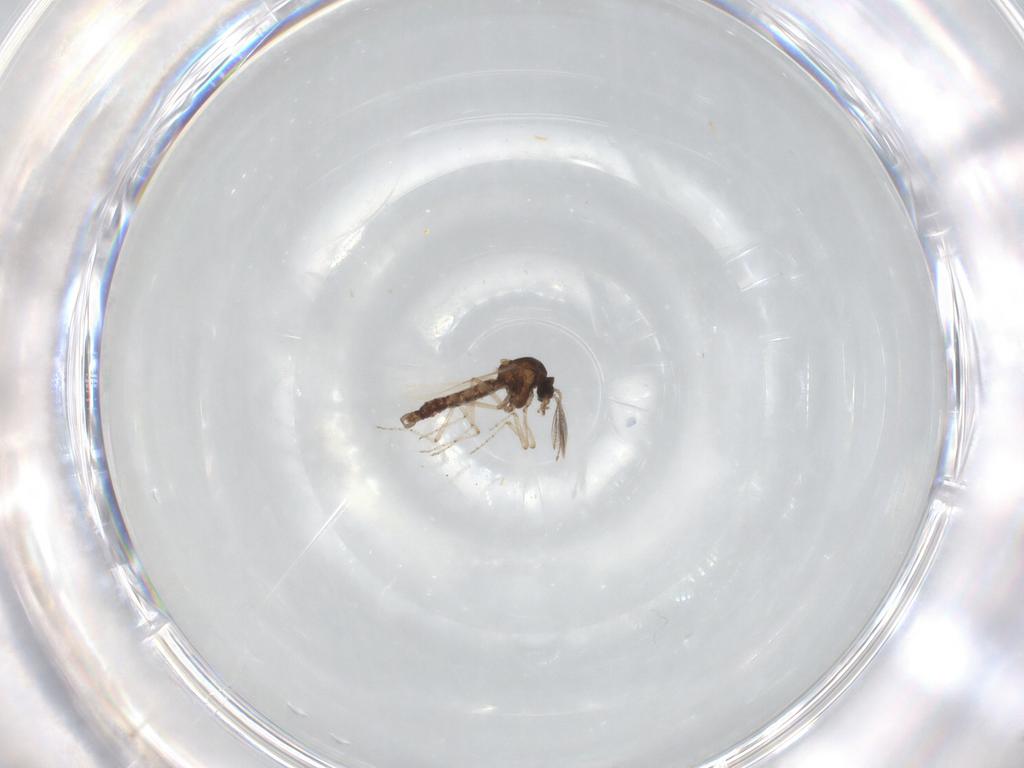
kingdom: Animalia
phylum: Arthropoda
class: Insecta
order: Diptera
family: Ceratopogonidae
